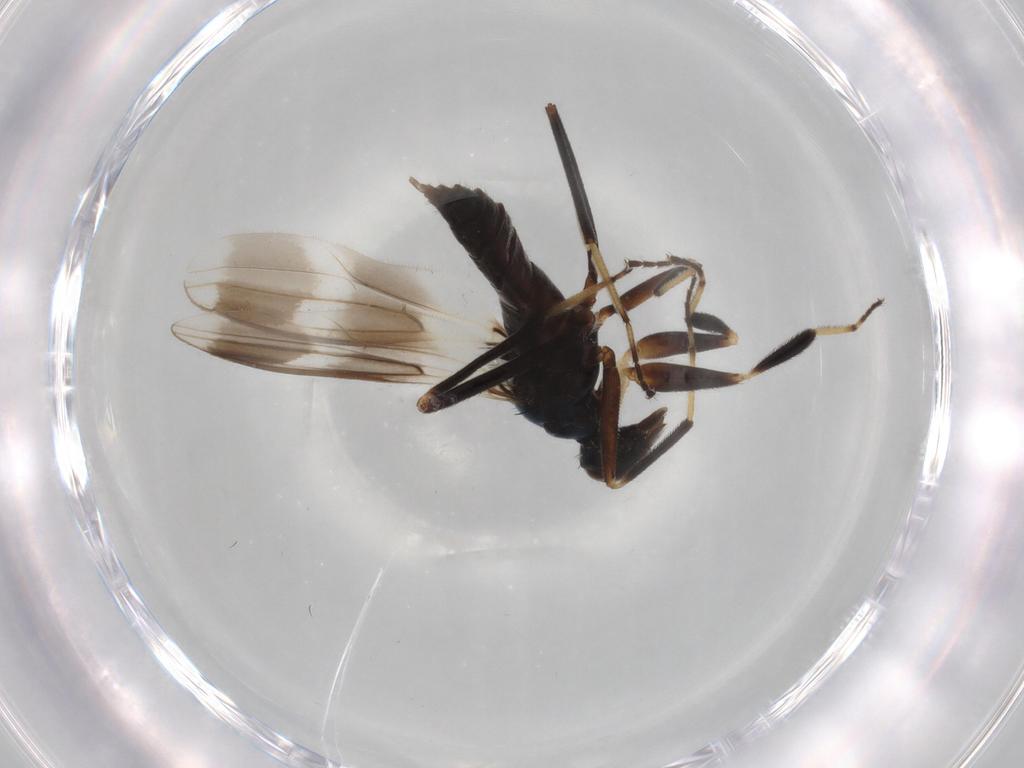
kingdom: Animalia
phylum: Arthropoda
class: Insecta
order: Diptera
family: Hybotidae
